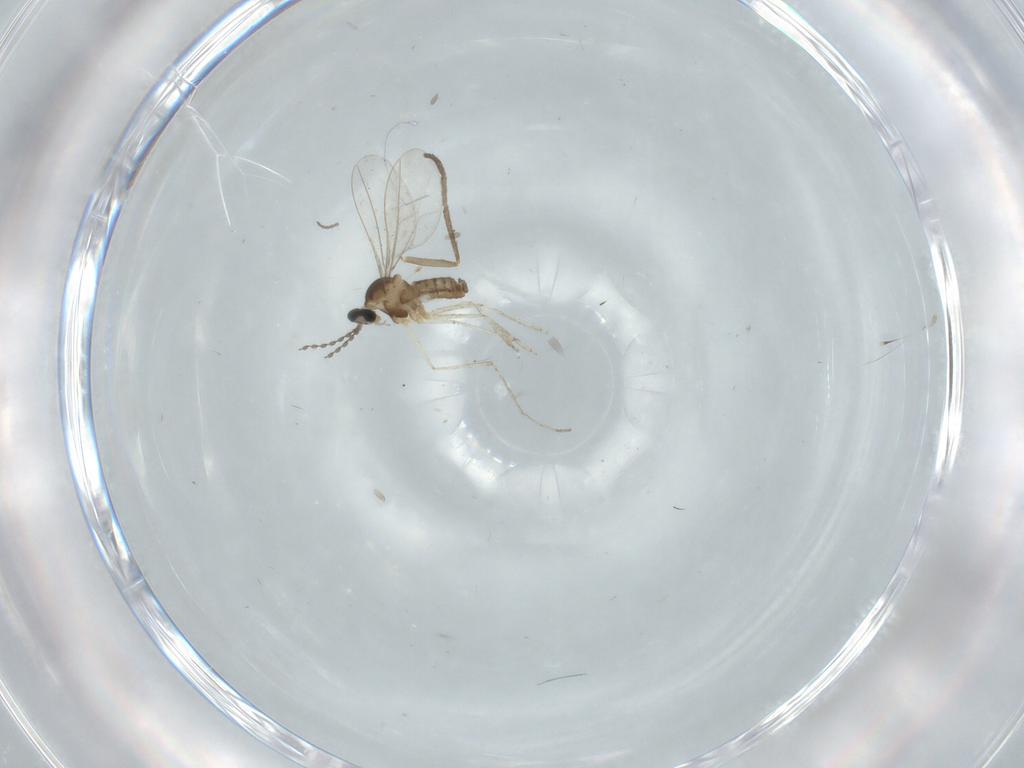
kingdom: Animalia
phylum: Arthropoda
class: Insecta
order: Diptera
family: Cecidomyiidae
